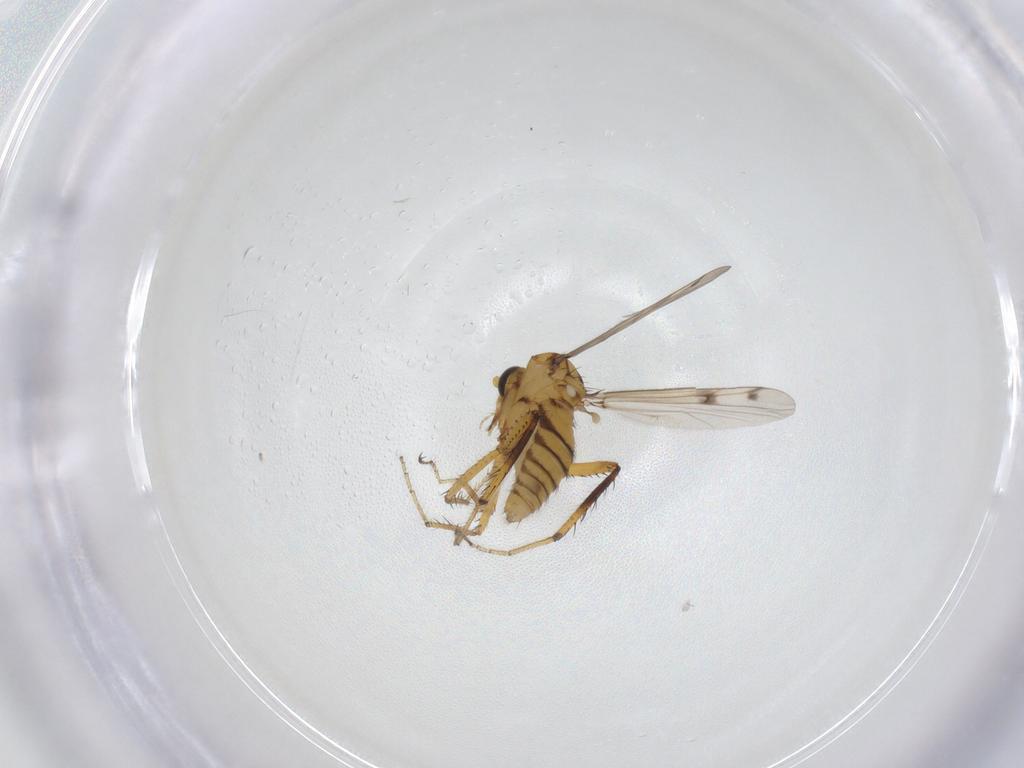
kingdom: Animalia
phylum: Arthropoda
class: Insecta
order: Diptera
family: Ceratopogonidae
